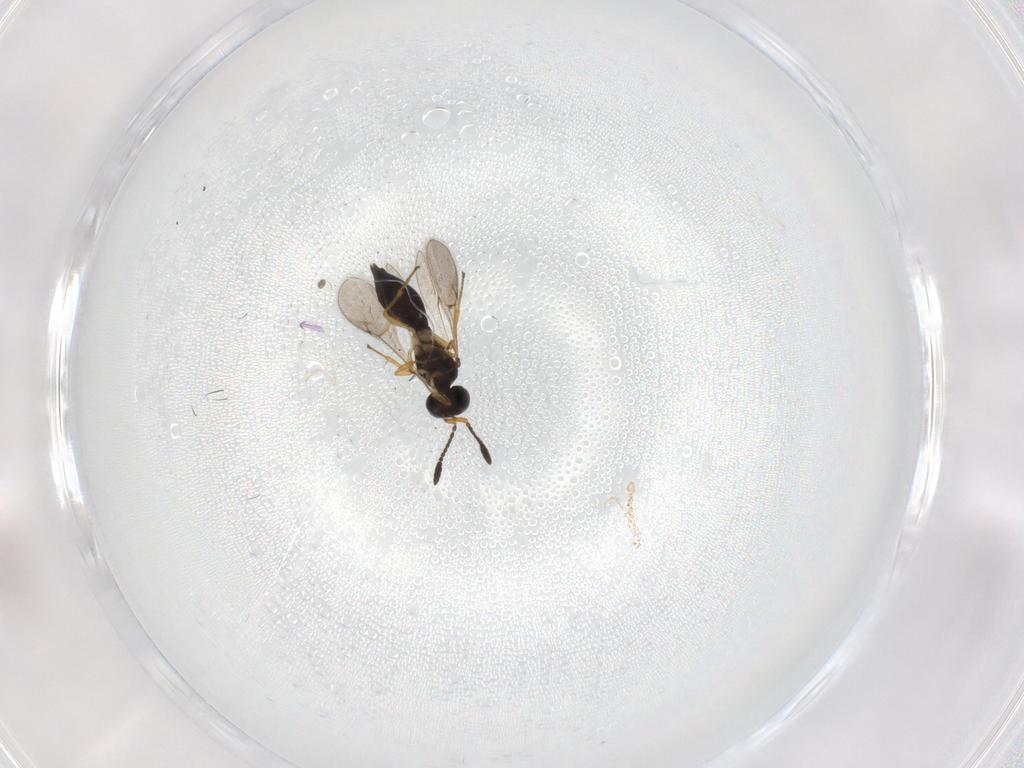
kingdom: Animalia
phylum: Arthropoda
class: Insecta
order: Hymenoptera
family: Scelionidae
